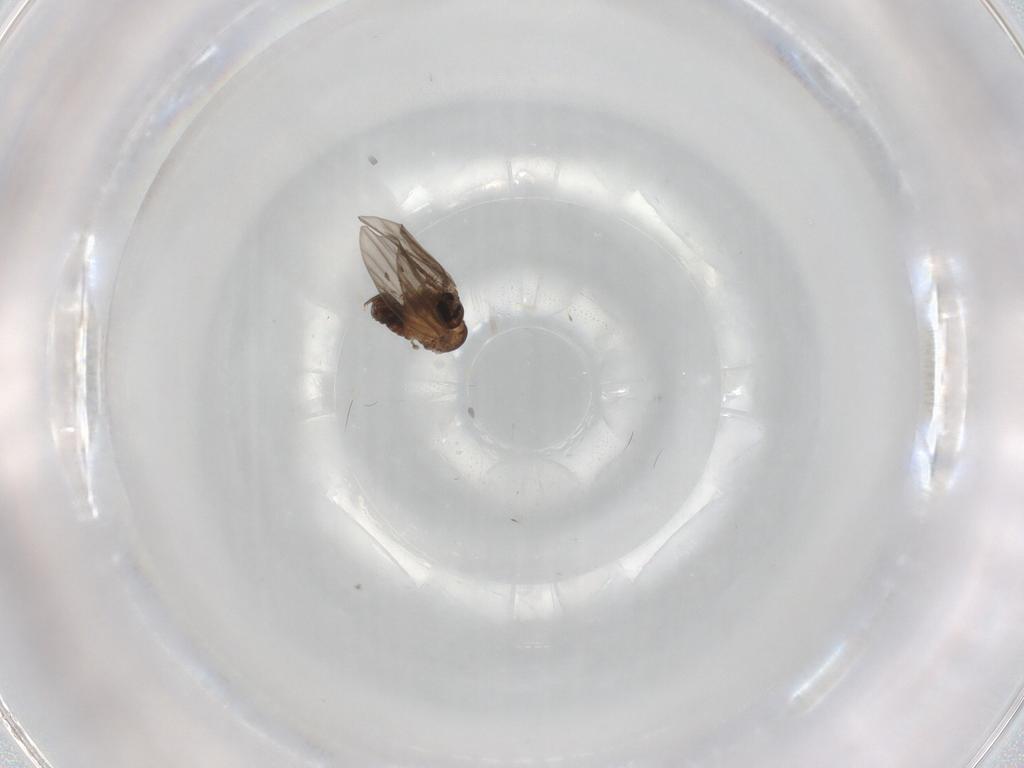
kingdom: Animalia
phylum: Arthropoda
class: Insecta
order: Diptera
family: Psychodidae
